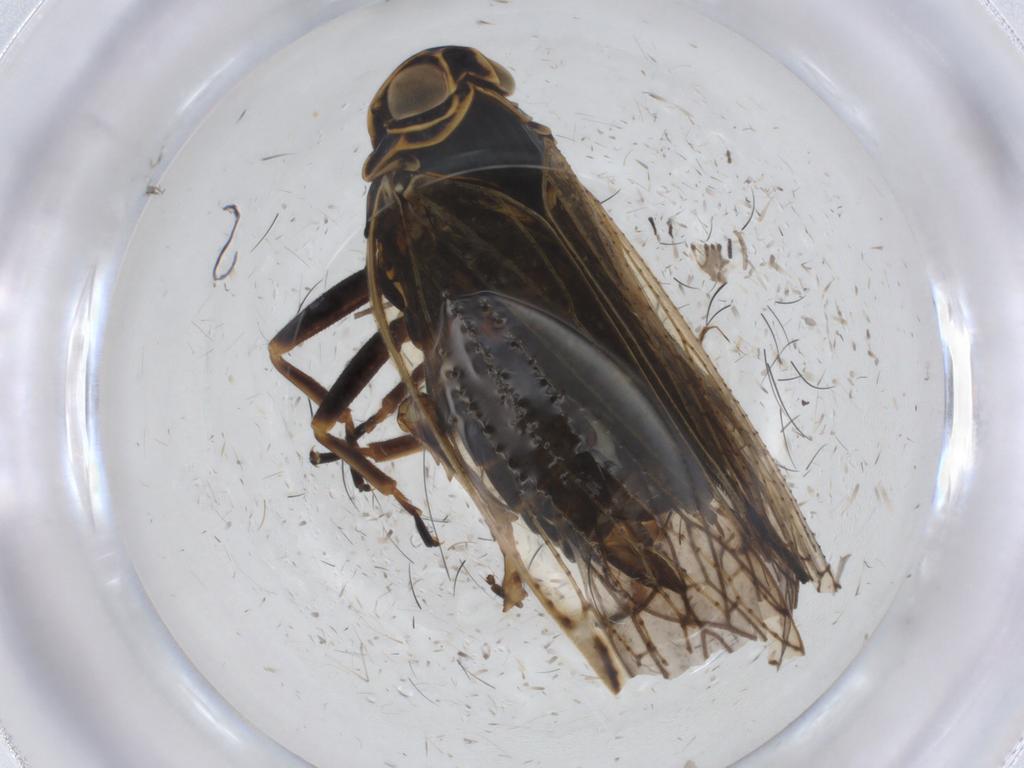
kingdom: Animalia
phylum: Arthropoda
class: Insecta
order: Hemiptera
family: Cixiidae
